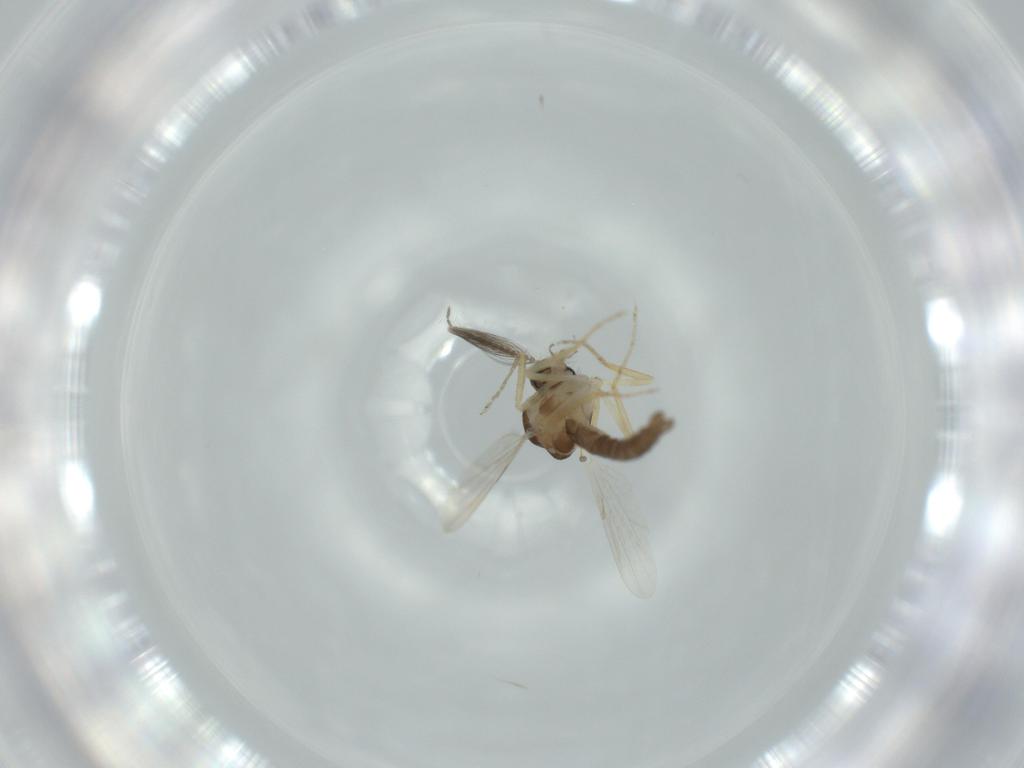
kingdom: Animalia
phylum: Arthropoda
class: Insecta
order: Diptera
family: Ceratopogonidae
